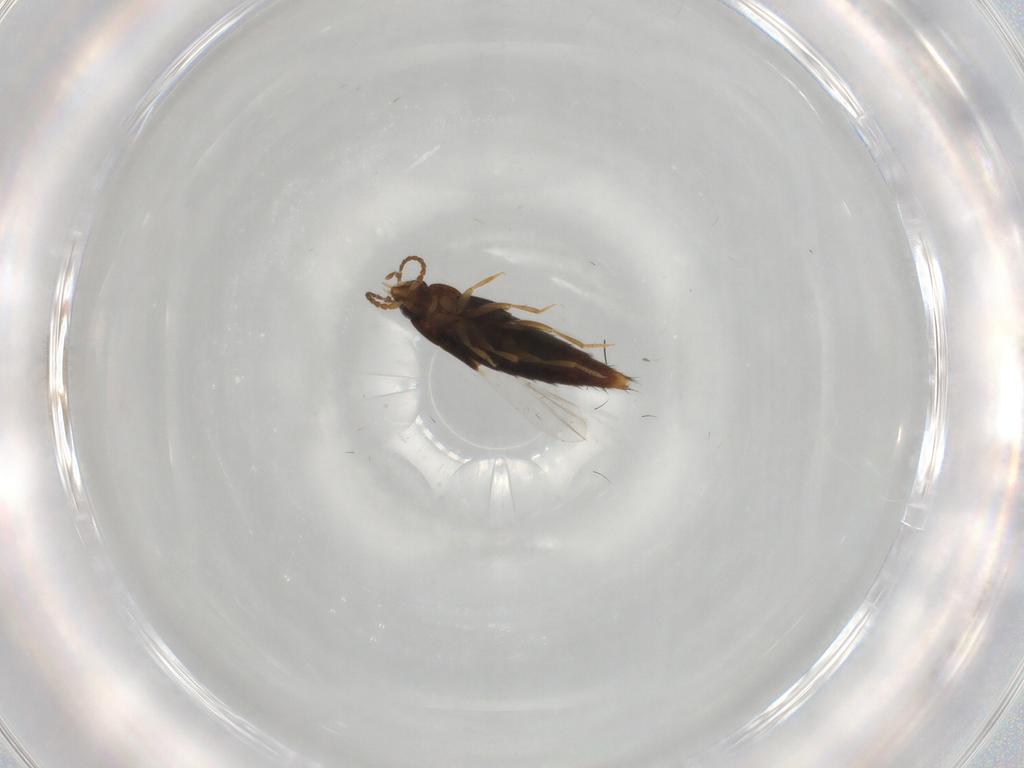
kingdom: Animalia
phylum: Arthropoda
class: Insecta
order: Coleoptera
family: Staphylinidae
